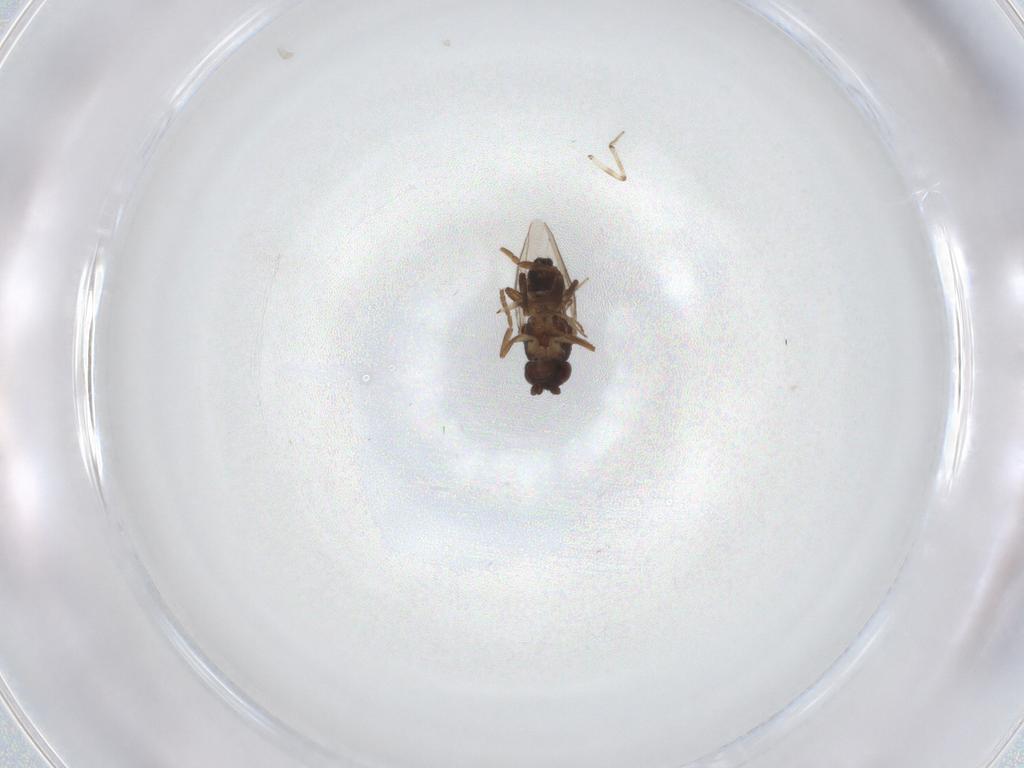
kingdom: Animalia
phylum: Arthropoda
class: Insecta
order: Diptera
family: Sphaeroceridae
